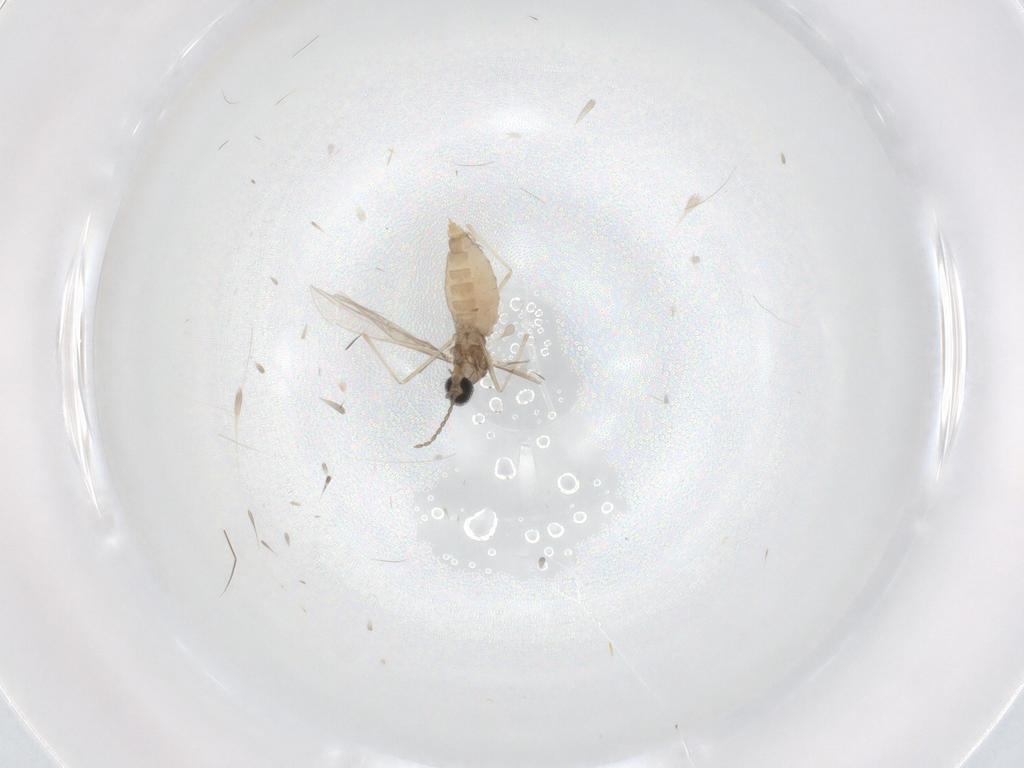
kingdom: Animalia
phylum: Arthropoda
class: Insecta
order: Diptera
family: Cecidomyiidae
